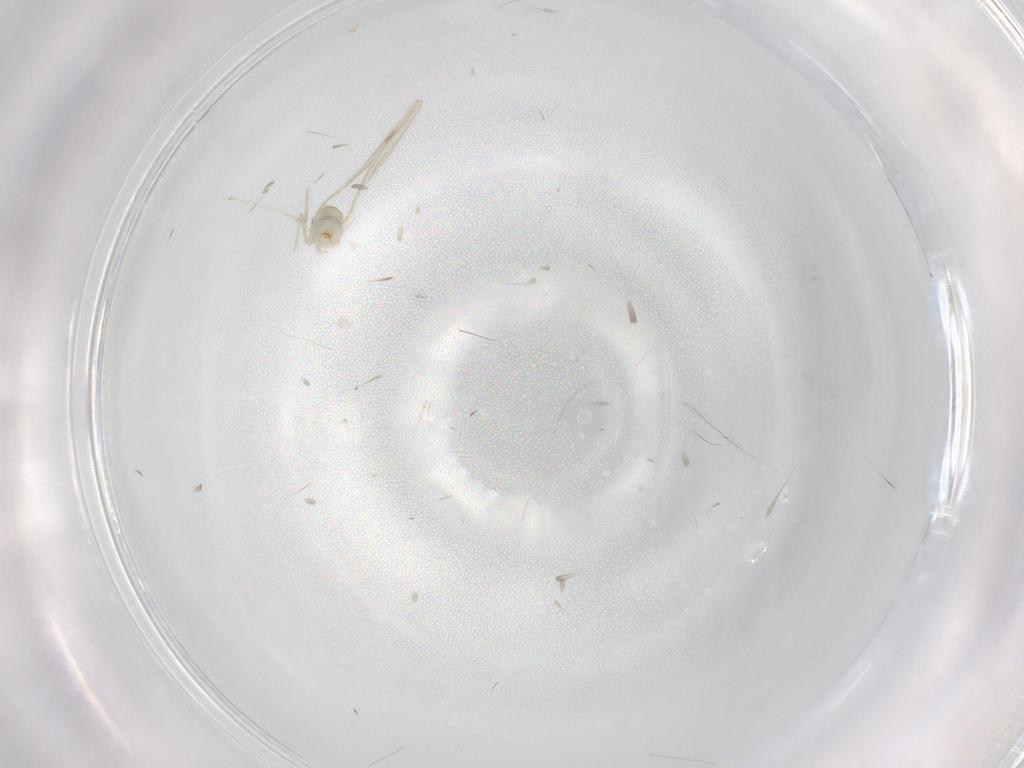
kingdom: Animalia
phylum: Arthropoda
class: Insecta
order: Diptera
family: Cecidomyiidae
